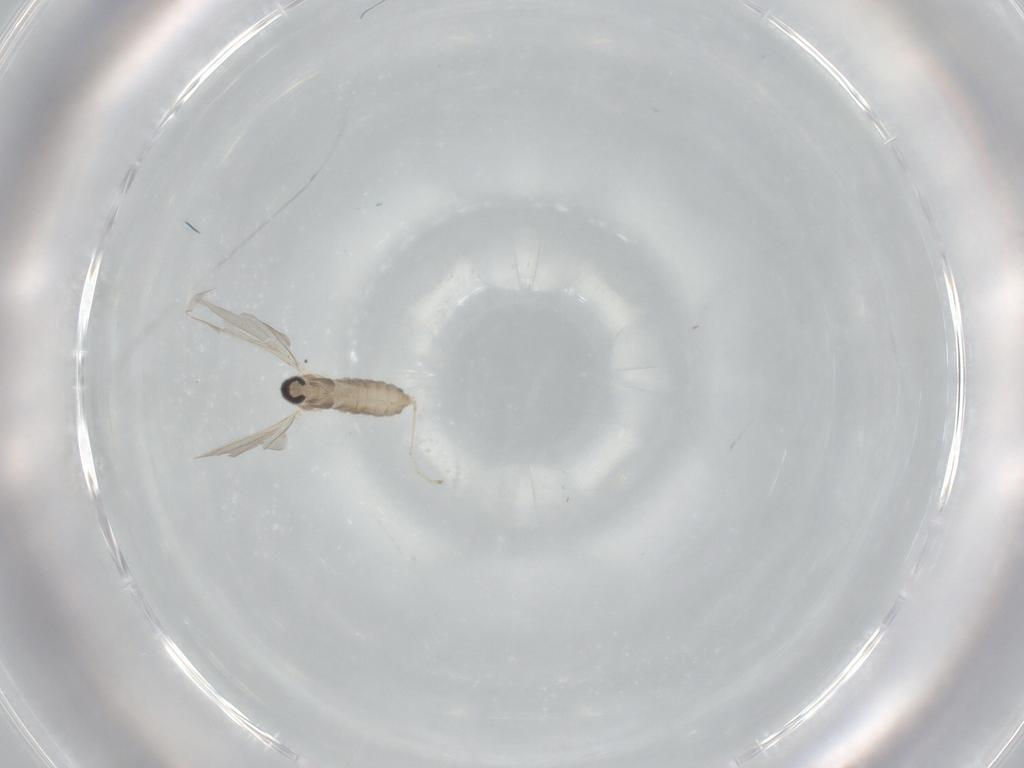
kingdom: Animalia
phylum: Arthropoda
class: Insecta
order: Diptera
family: Cecidomyiidae
